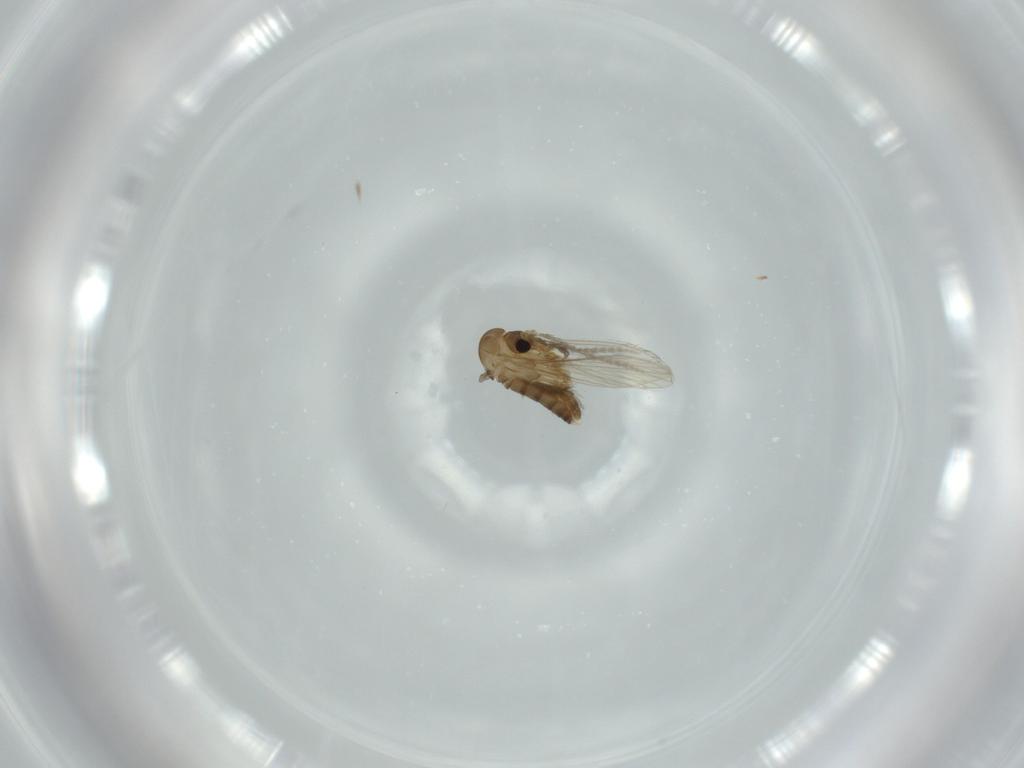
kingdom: Animalia
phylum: Arthropoda
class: Insecta
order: Diptera
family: Psychodidae
